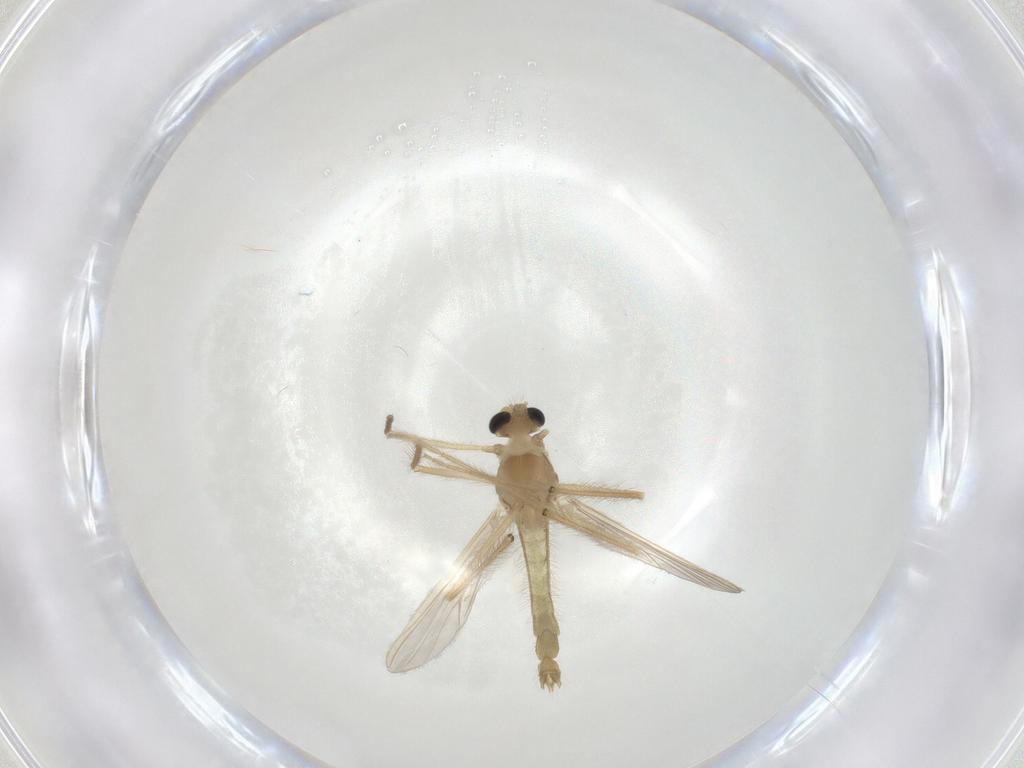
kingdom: Animalia
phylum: Arthropoda
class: Insecta
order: Diptera
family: Chironomidae
